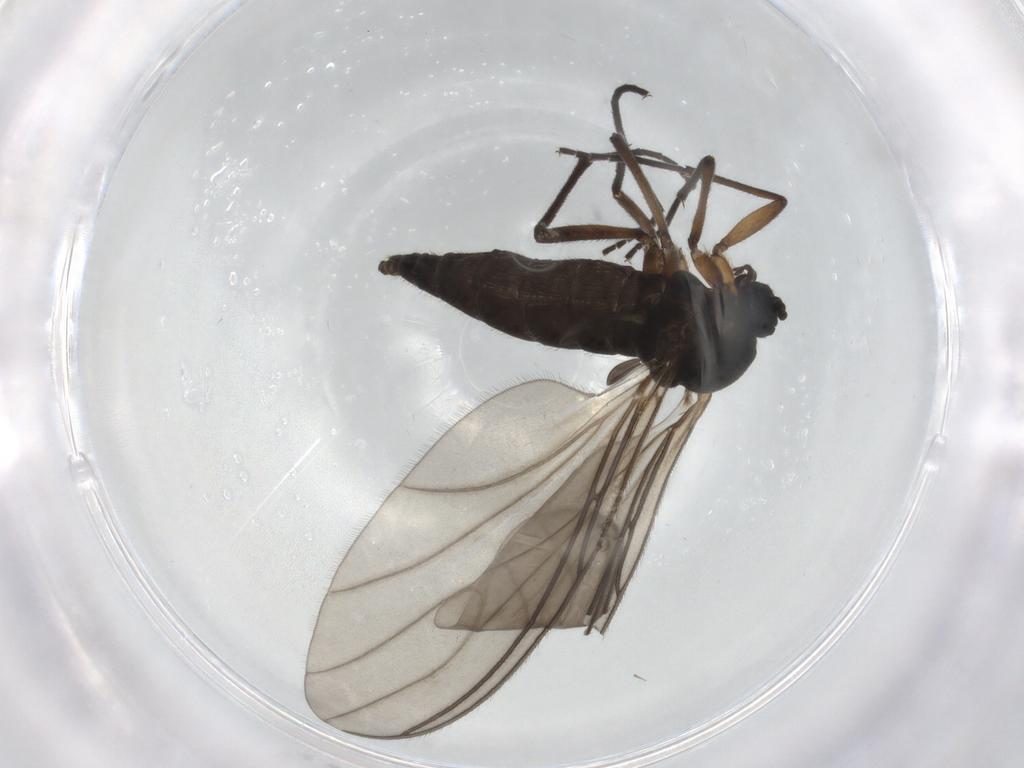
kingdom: Animalia
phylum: Arthropoda
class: Insecta
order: Diptera
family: Sciaridae
